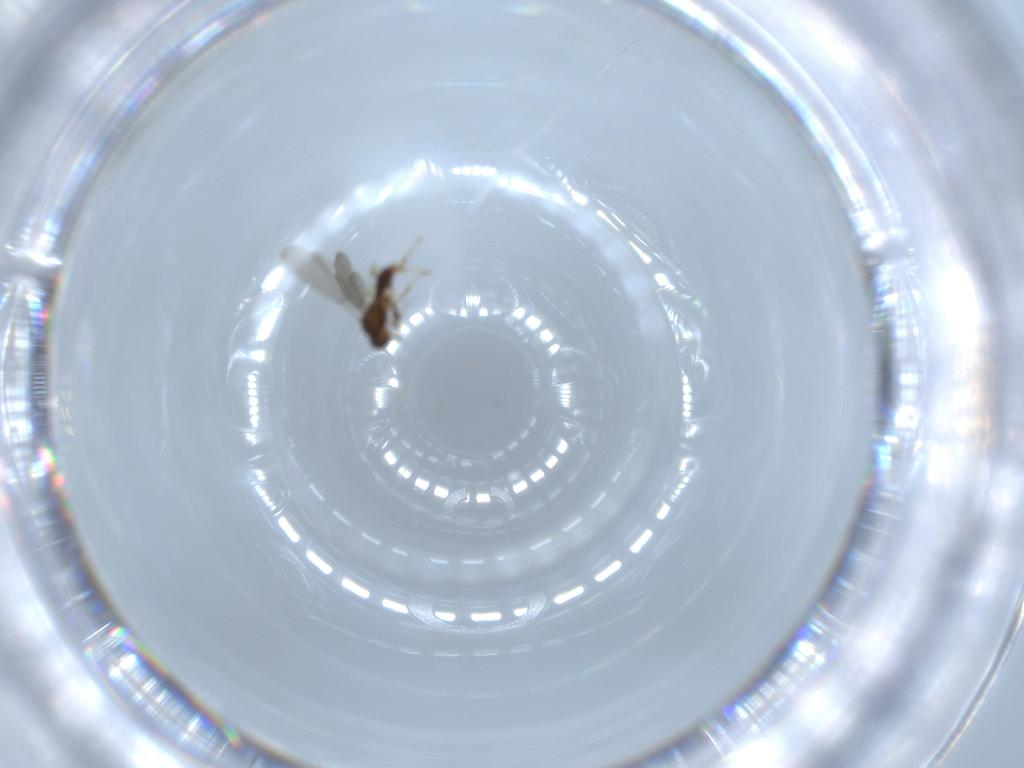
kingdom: Animalia
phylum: Arthropoda
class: Insecta
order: Hymenoptera
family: Platygastridae
